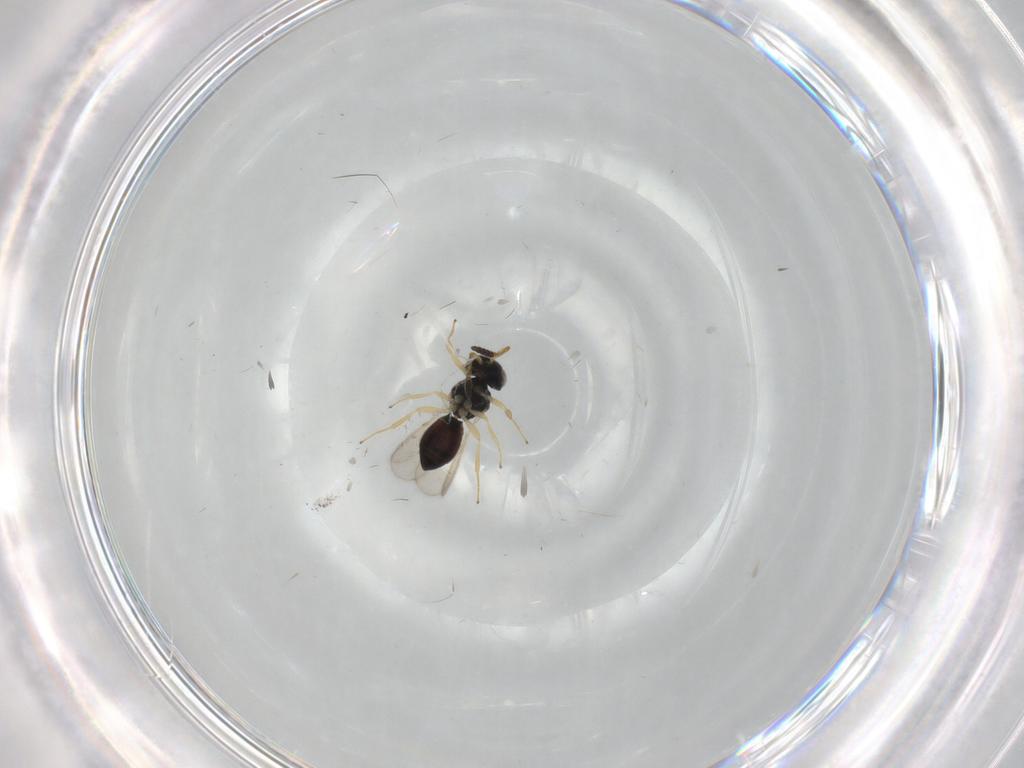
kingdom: Animalia
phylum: Arthropoda
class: Insecta
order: Hymenoptera
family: Scelionidae
